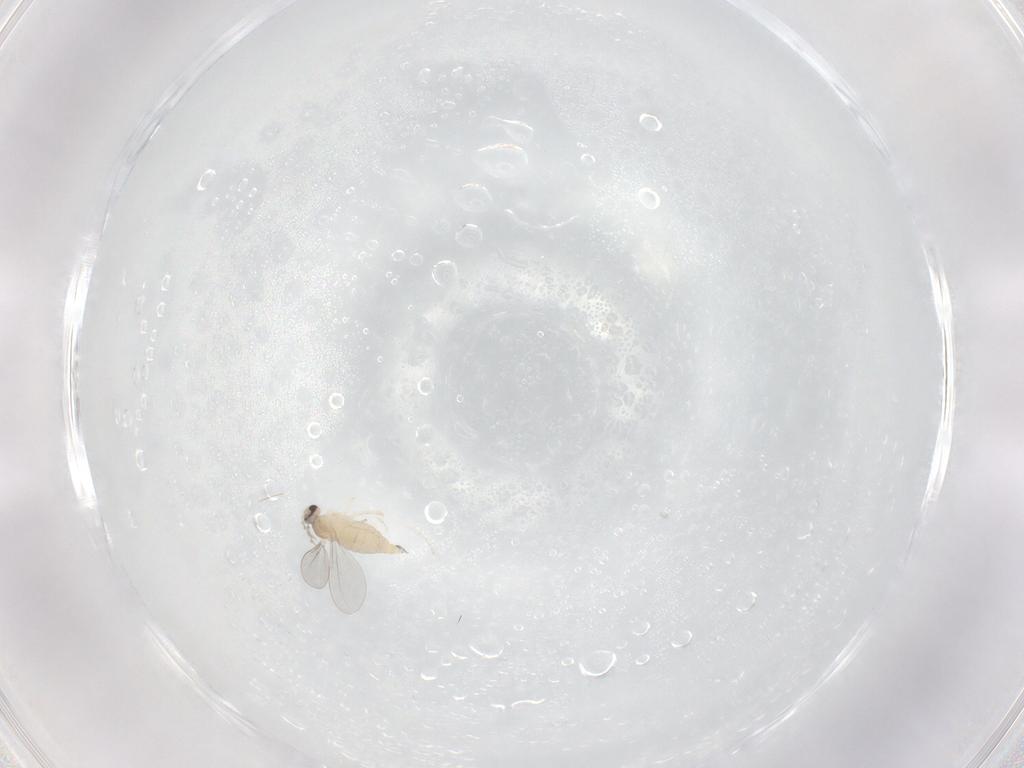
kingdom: Animalia
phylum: Arthropoda
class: Insecta
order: Diptera
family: Cecidomyiidae
